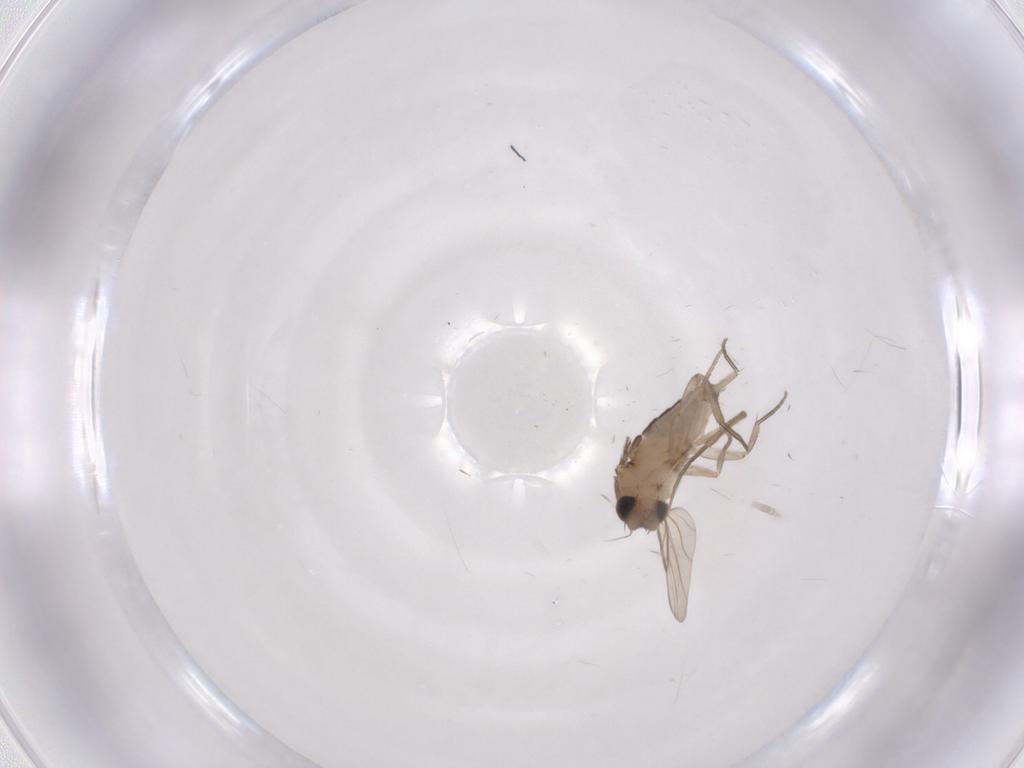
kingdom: Animalia
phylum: Arthropoda
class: Insecta
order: Diptera
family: Phoridae
